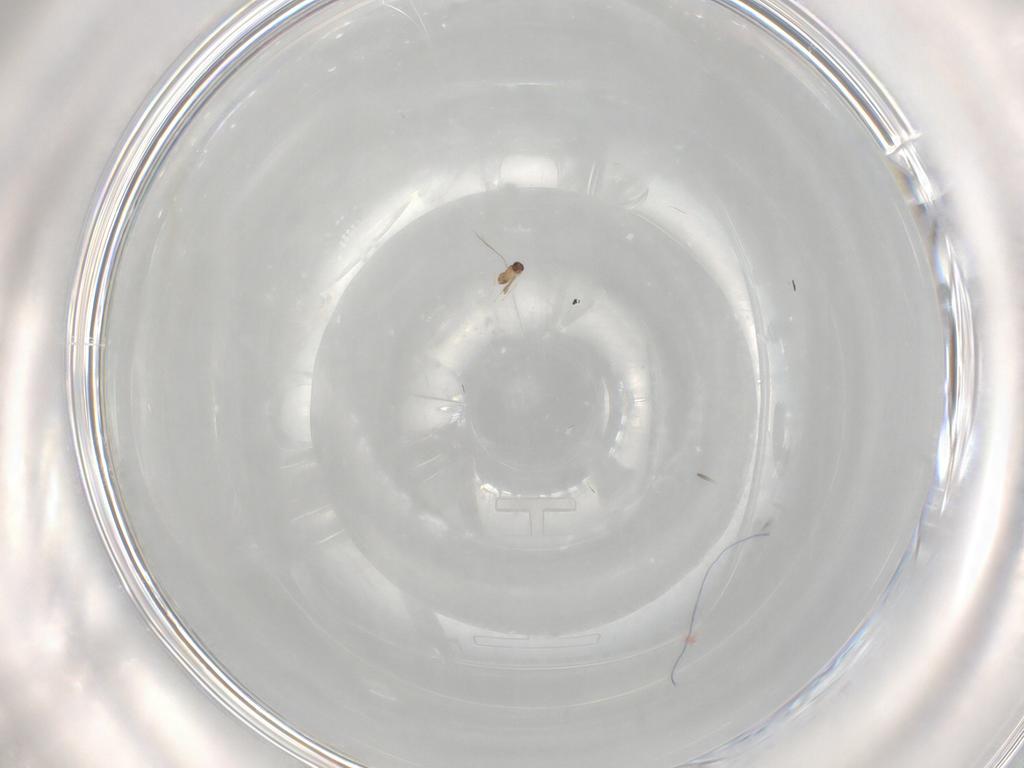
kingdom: Animalia
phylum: Arthropoda
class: Insecta
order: Hymenoptera
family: Formicidae
